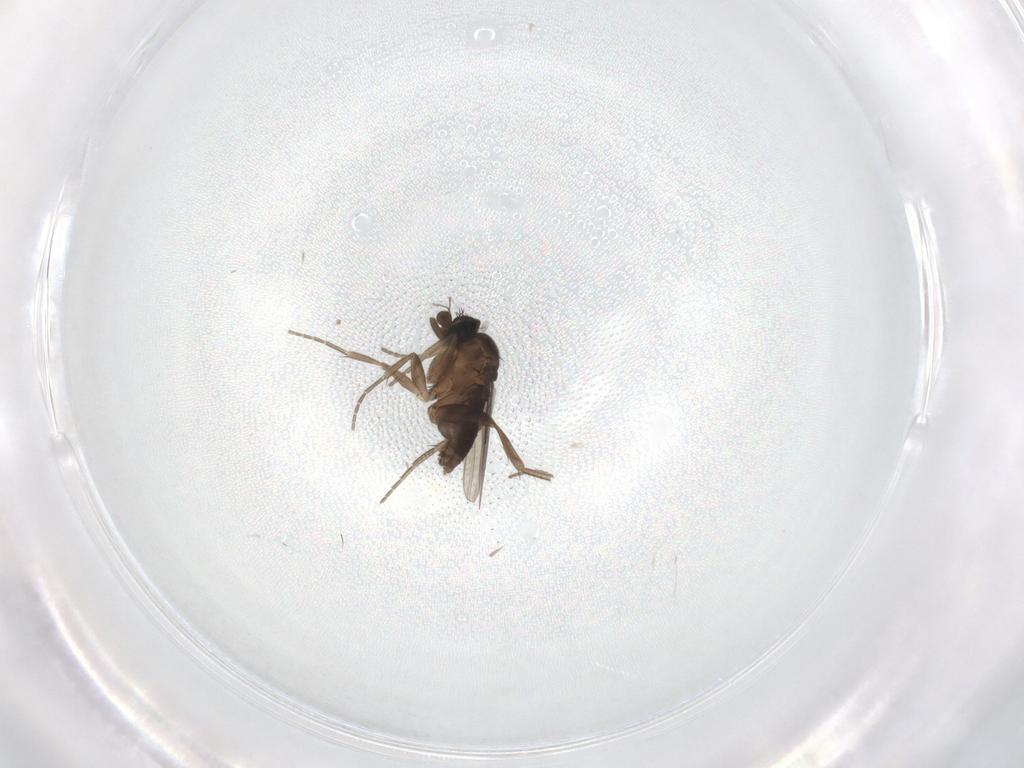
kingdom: Animalia
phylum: Arthropoda
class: Insecta
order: Diptera
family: Phoridae
